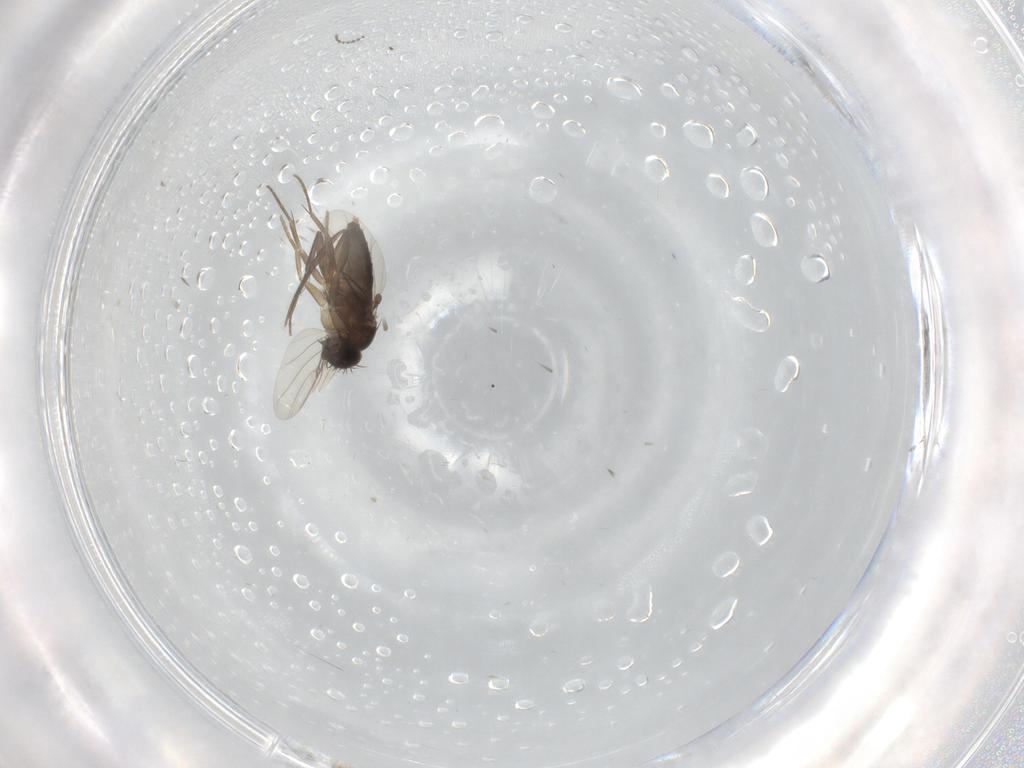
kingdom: Animalia
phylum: Arthropoda
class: Insecta
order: Diptera
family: Phoridae
